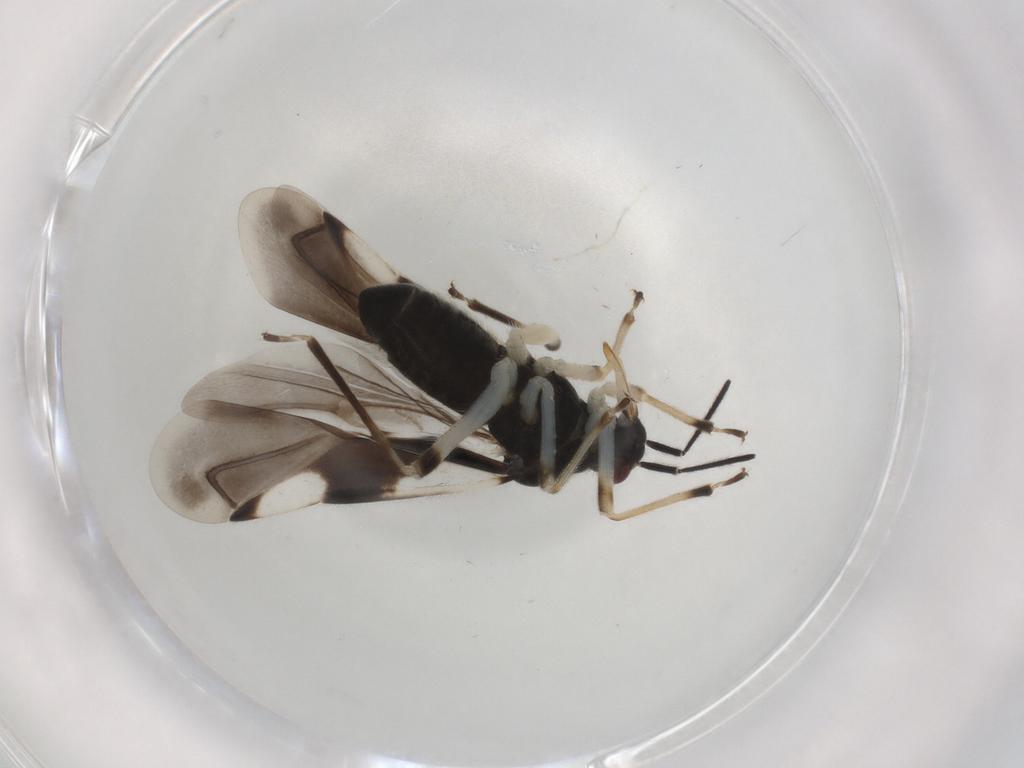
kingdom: Animalia
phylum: Arthropoda
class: Insecta
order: Hemiptera
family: Miridae
